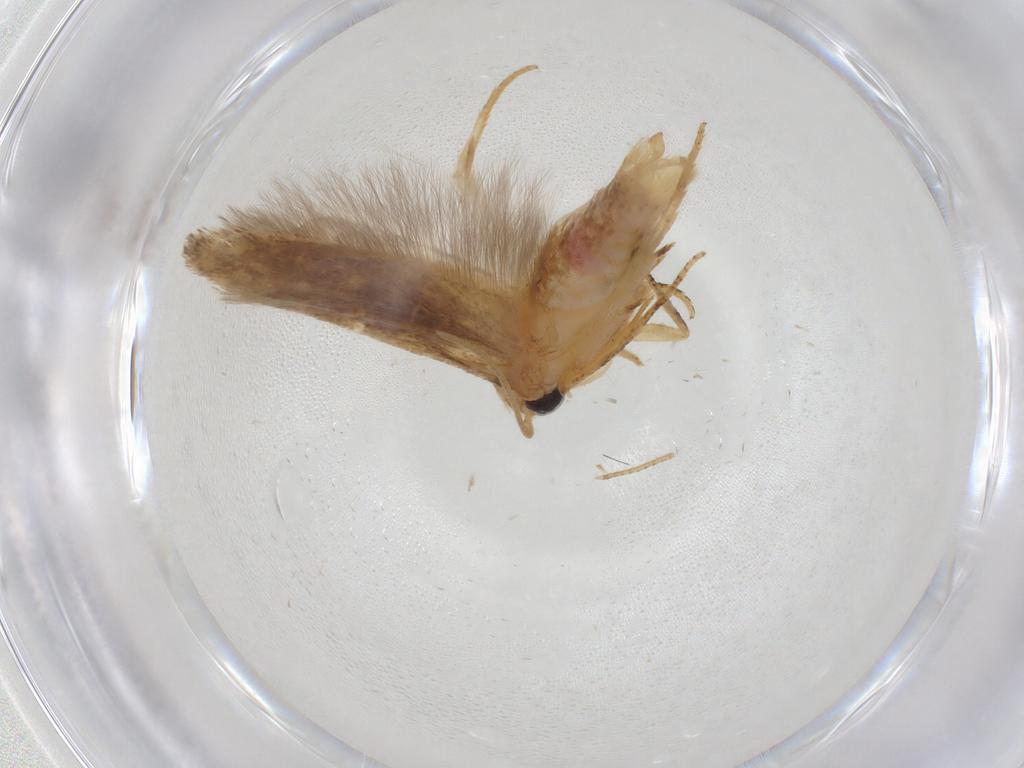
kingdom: Animalia
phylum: Arthropoda
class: Insecta
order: Lepidoptera
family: Gelechiidae
